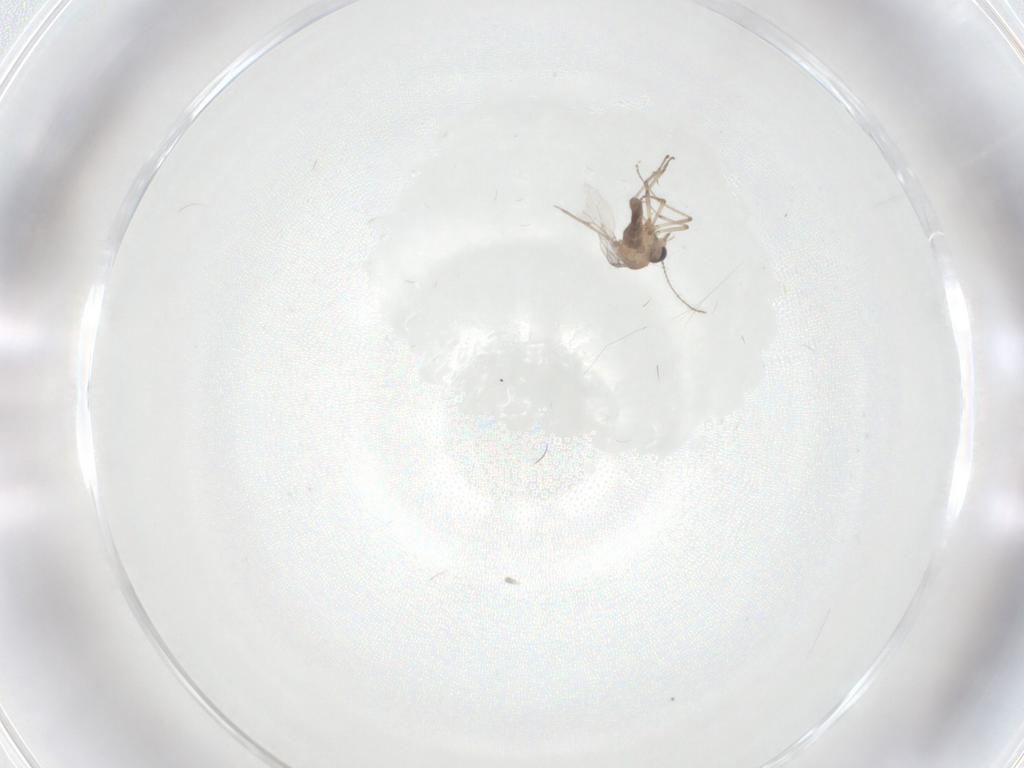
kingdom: Animalia
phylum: Arthropoda
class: Insecta
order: Diptera
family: Ceratopogonidae
